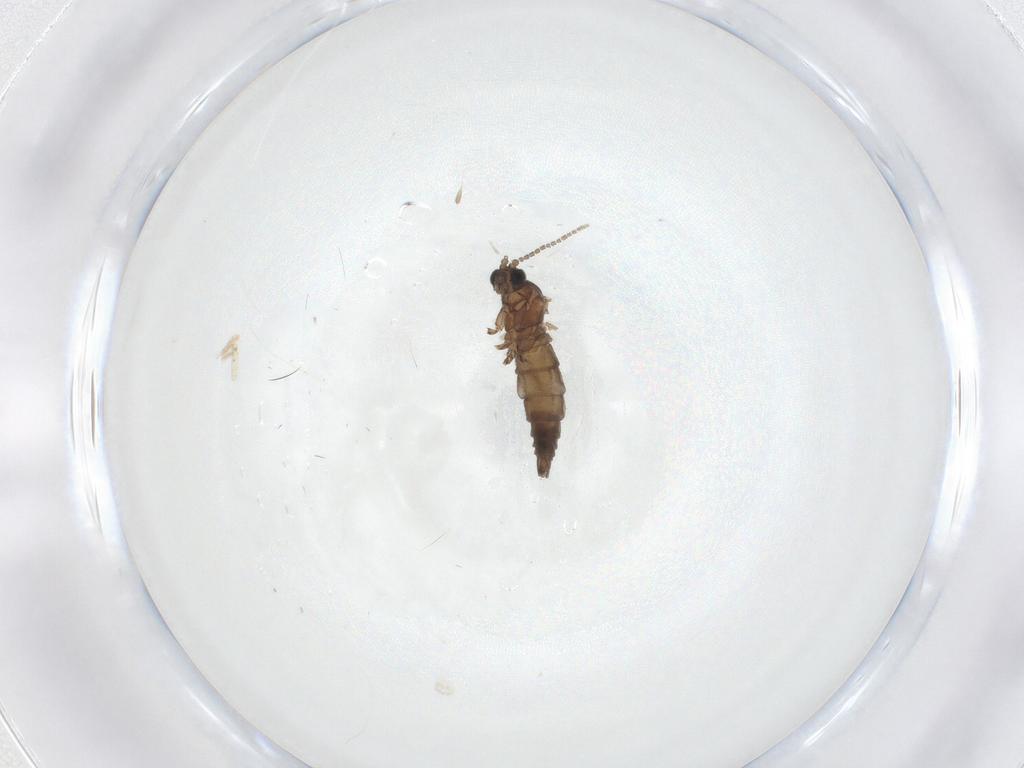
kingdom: Animalia
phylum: Arthropoda
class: Insecta
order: Diptera
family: Sciaridae
